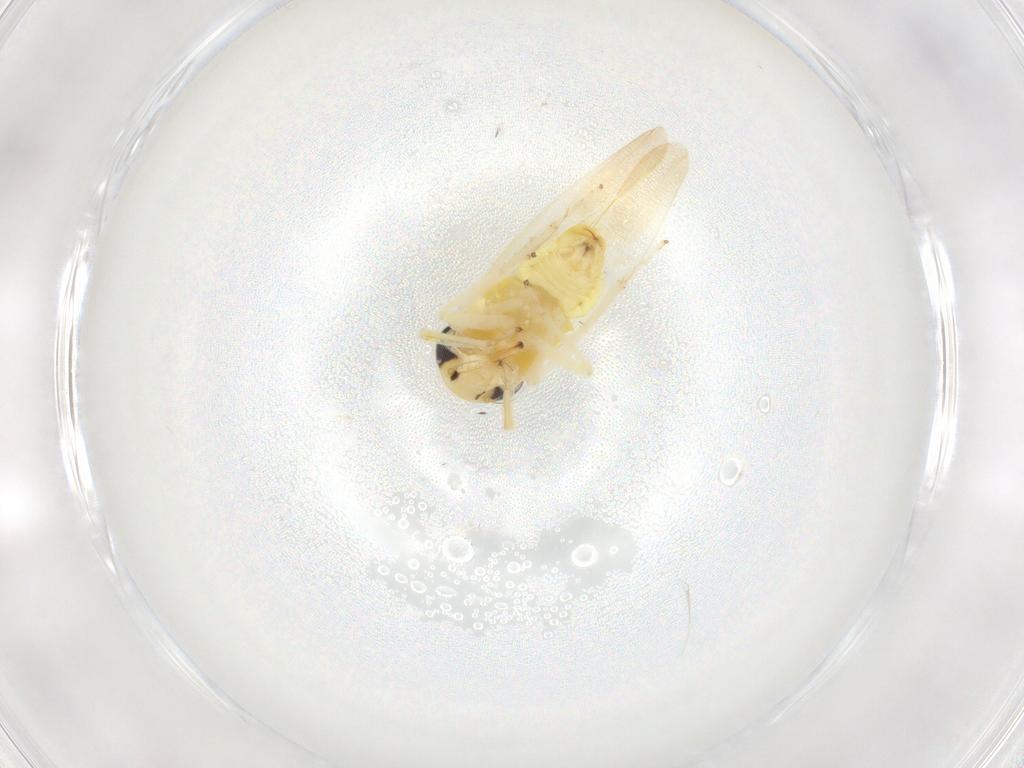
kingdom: Animalia
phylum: Arthropoda
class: Insecta
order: Hemiptera
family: Cicadellidae
